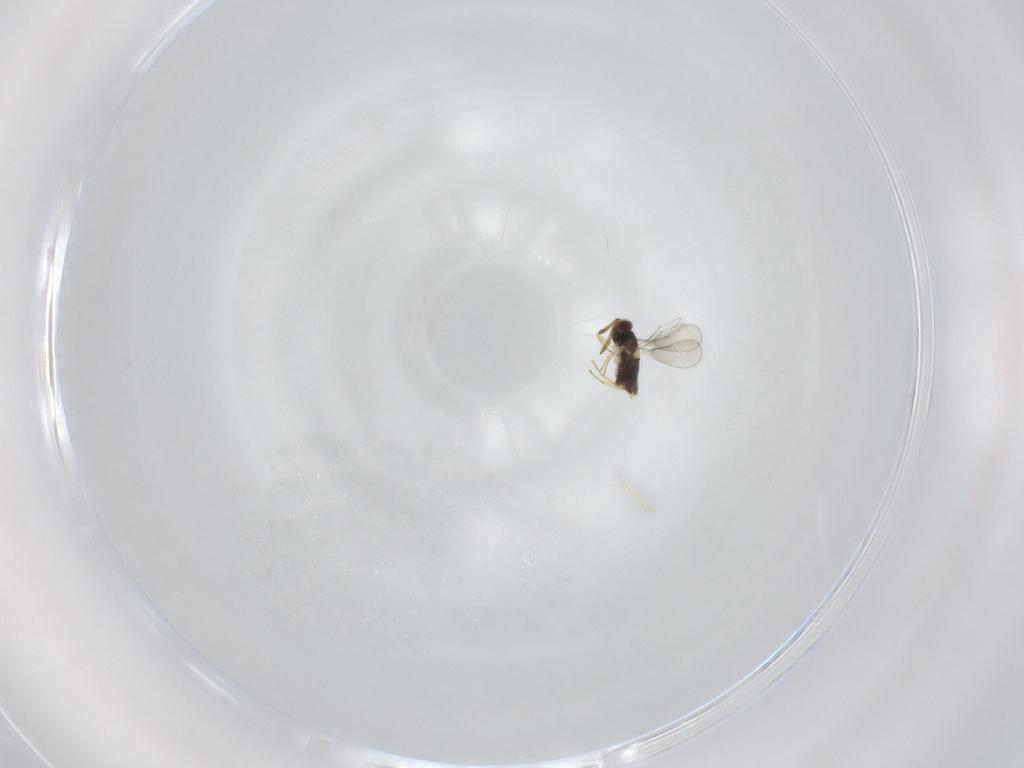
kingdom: Animalia
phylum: Arthropoda
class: Insecta
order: Hymenoptera
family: Aphelinidae
